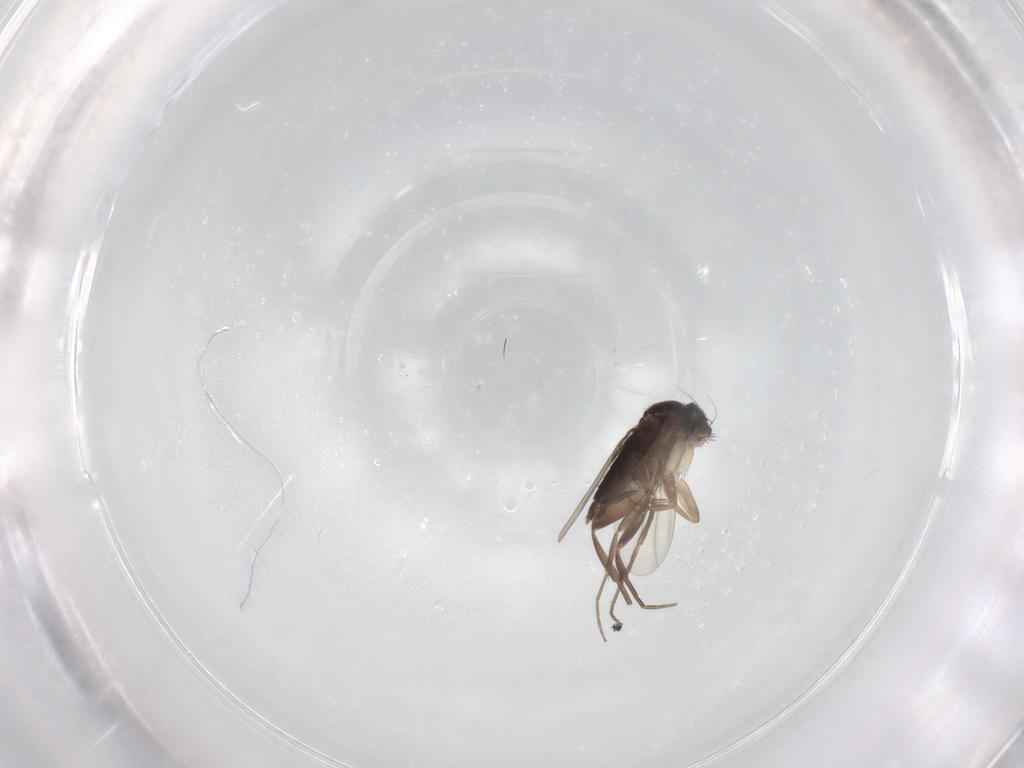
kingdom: Animalia
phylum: Arthropoda
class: Insecta
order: Diptera
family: Phoridae
